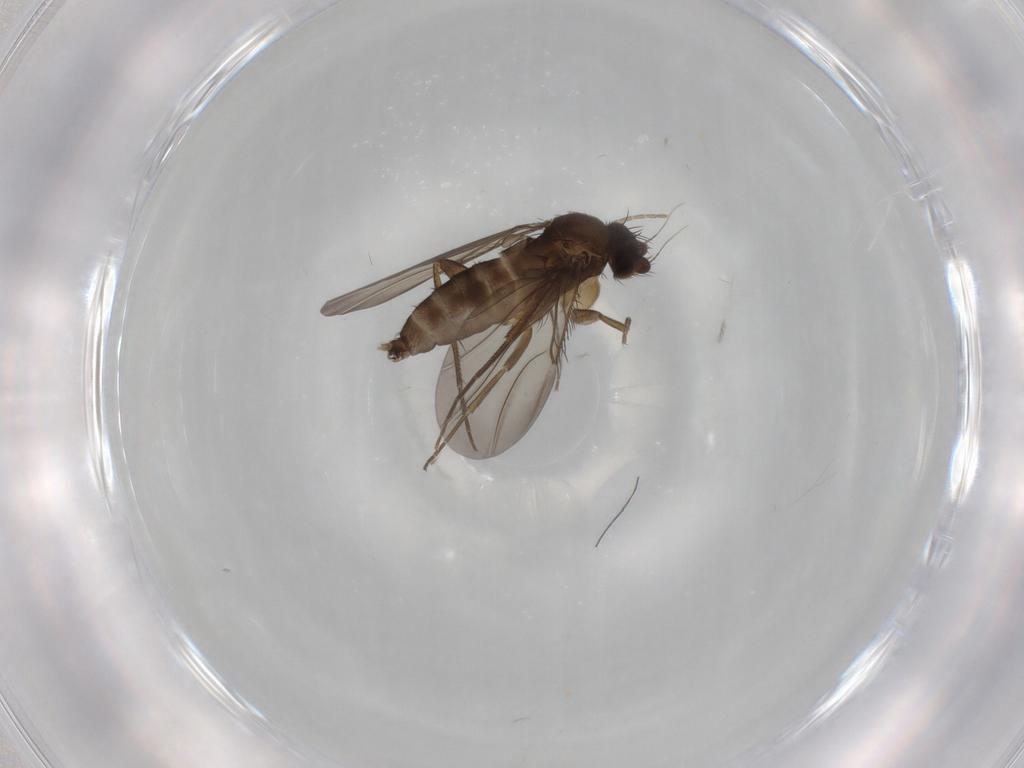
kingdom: Animalia
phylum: Arthropoda
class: Insecta
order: Diptera
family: Phoridae
